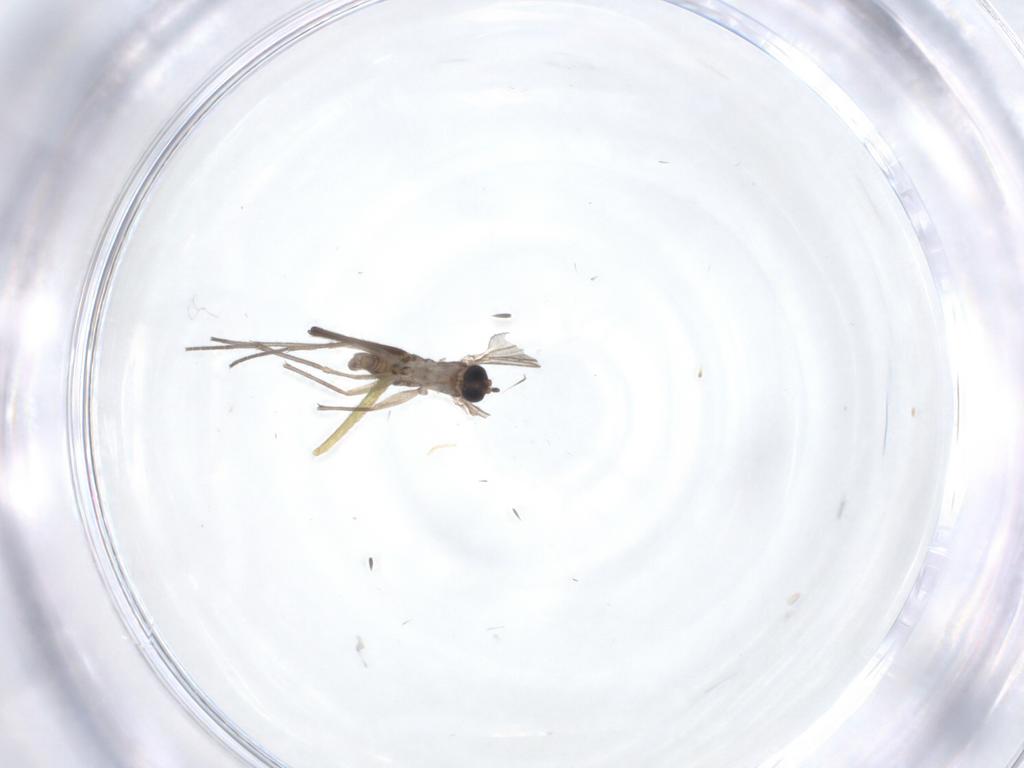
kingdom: Animalia
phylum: Arthropoda
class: Insecta
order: Diptera
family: Sciaridae
